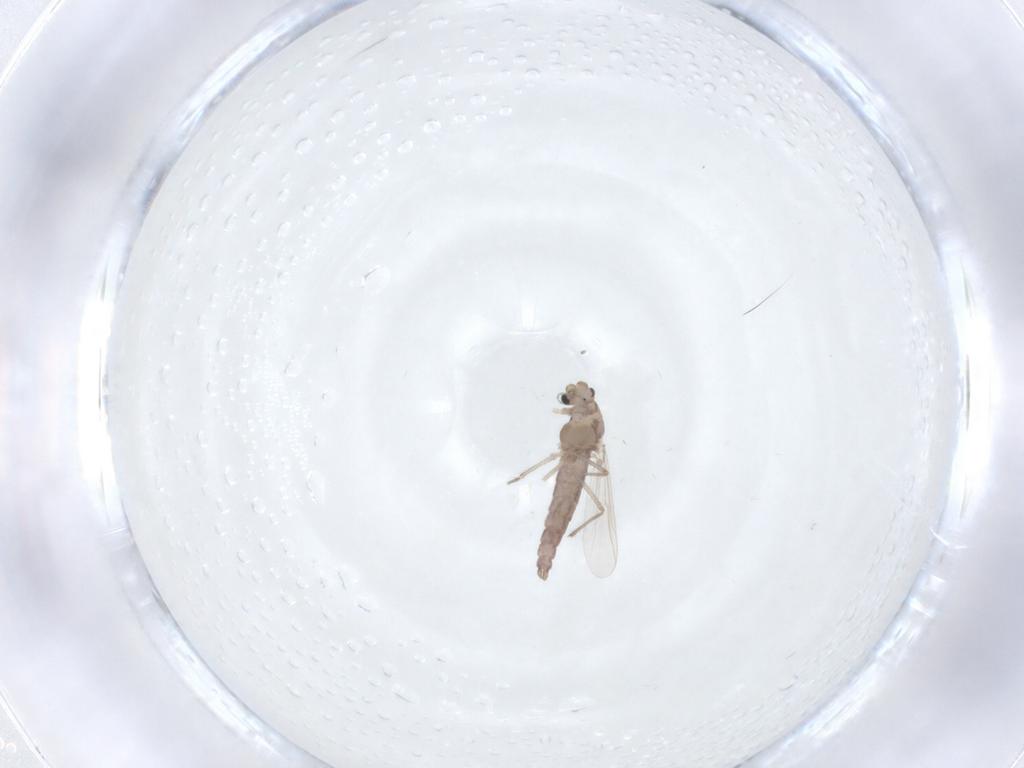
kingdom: Animalia
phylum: Arthropoda
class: Insecta
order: Diptera
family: Chironomidae
